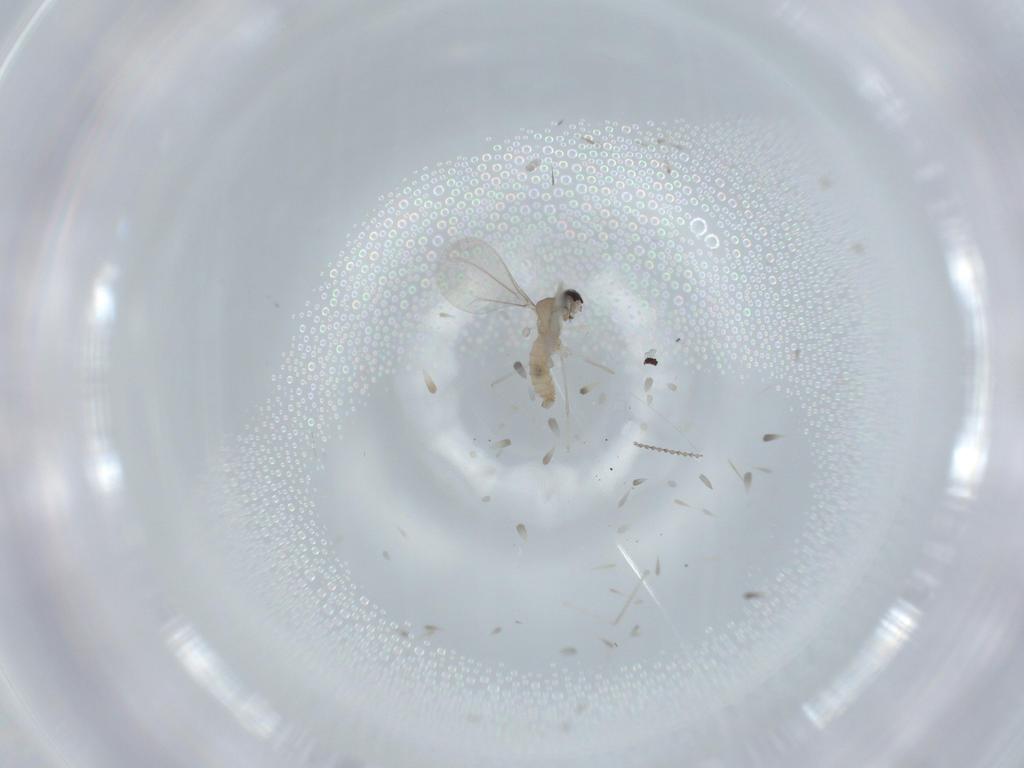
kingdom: Animalia
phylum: Arthropoda
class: Insecta
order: Diptera
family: Cecidomyiidae
